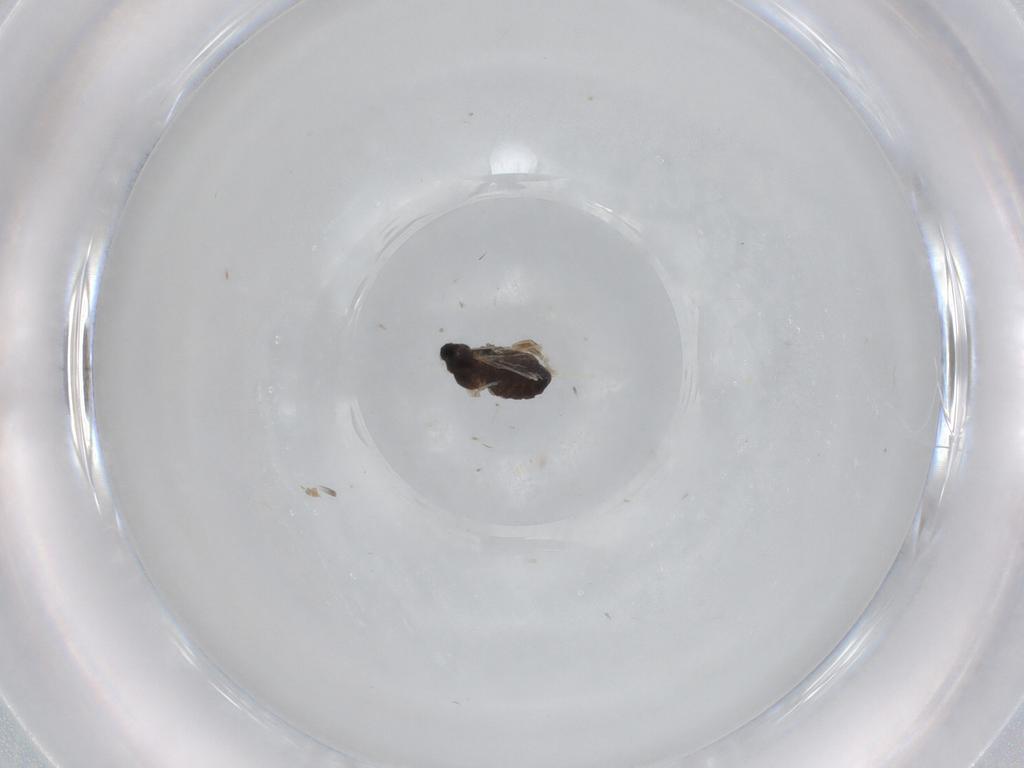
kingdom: Animalia
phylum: Arthropoda
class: Insecta
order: Diptera
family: Cecidomyiidae
